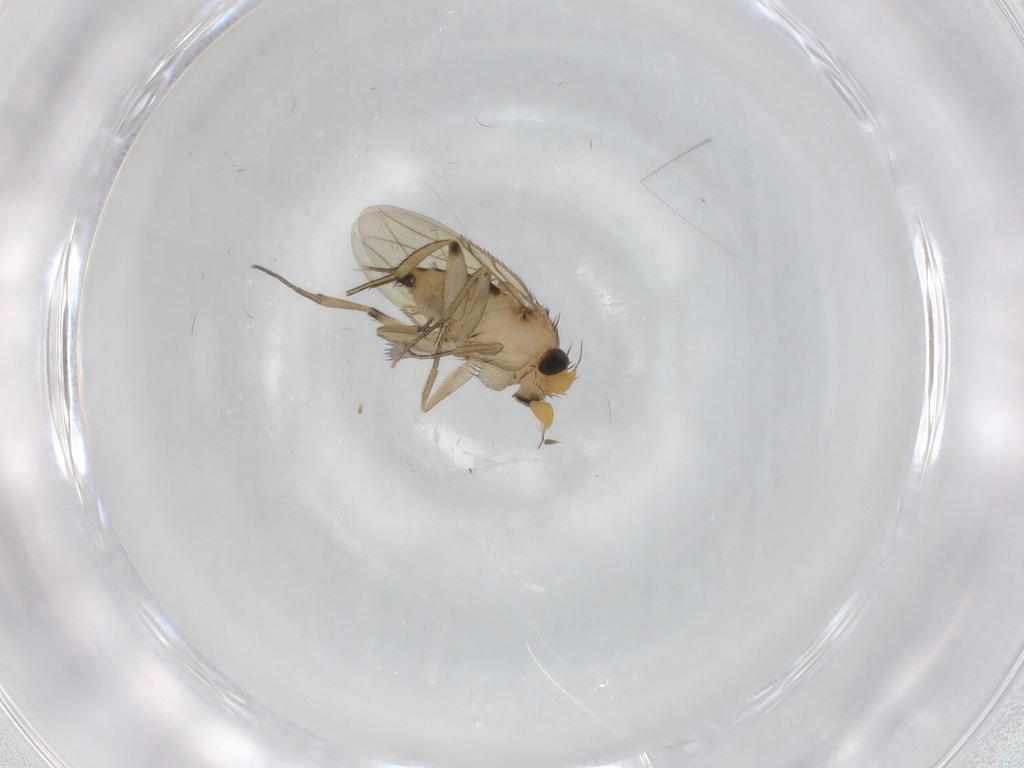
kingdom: Animalia
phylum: Arthropoda
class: Insecta
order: Diptera
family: Phoridae
